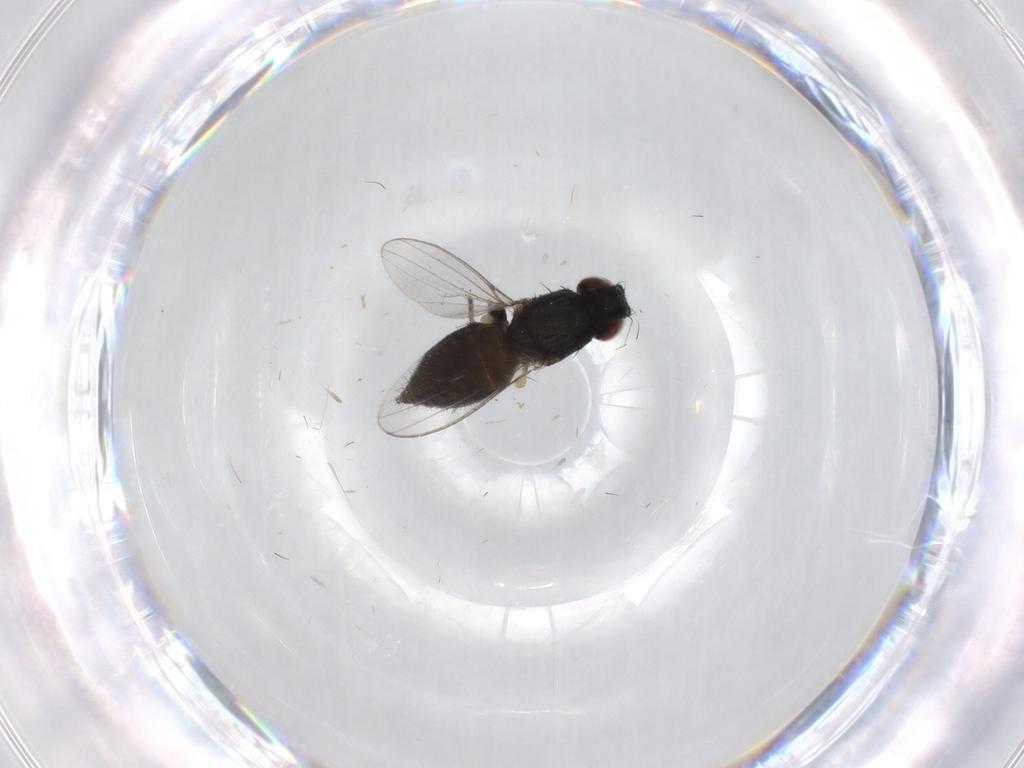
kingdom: Animalia
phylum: Arthropoda
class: Insecta
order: Diptera
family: Milichiidae
